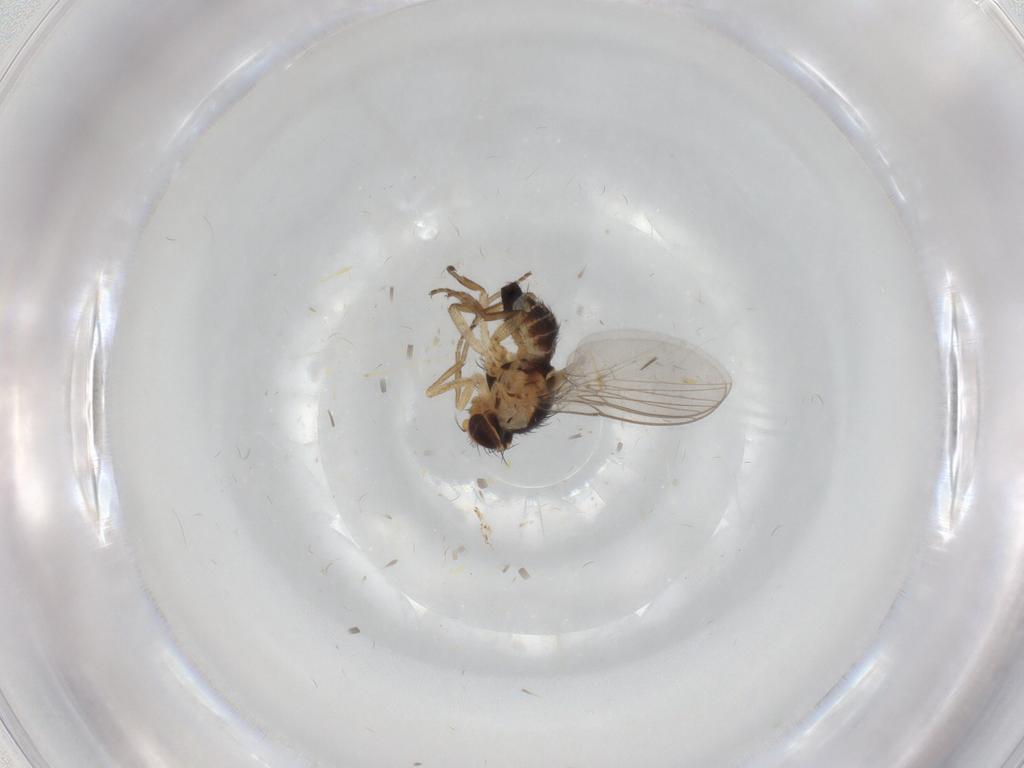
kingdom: Animalia
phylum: Arthropoda
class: Insecta
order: Diptera
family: Agromyzidae
